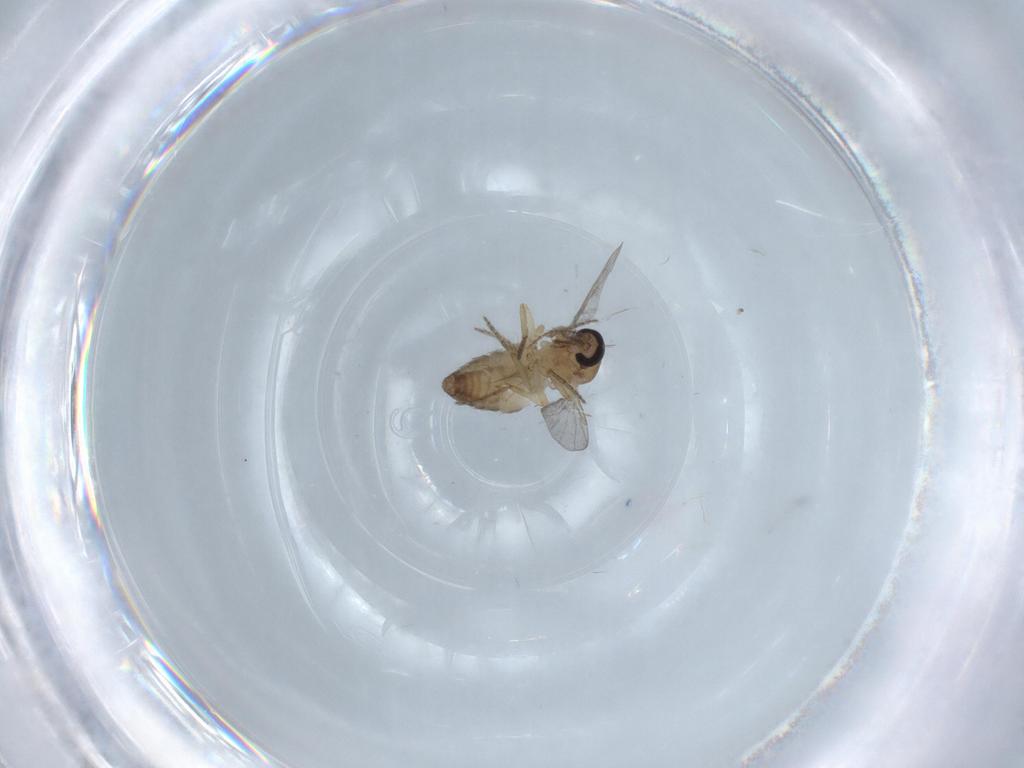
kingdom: Animalia
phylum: Arthropoda
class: Insecta
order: Diptera
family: Ceratopogonidae
